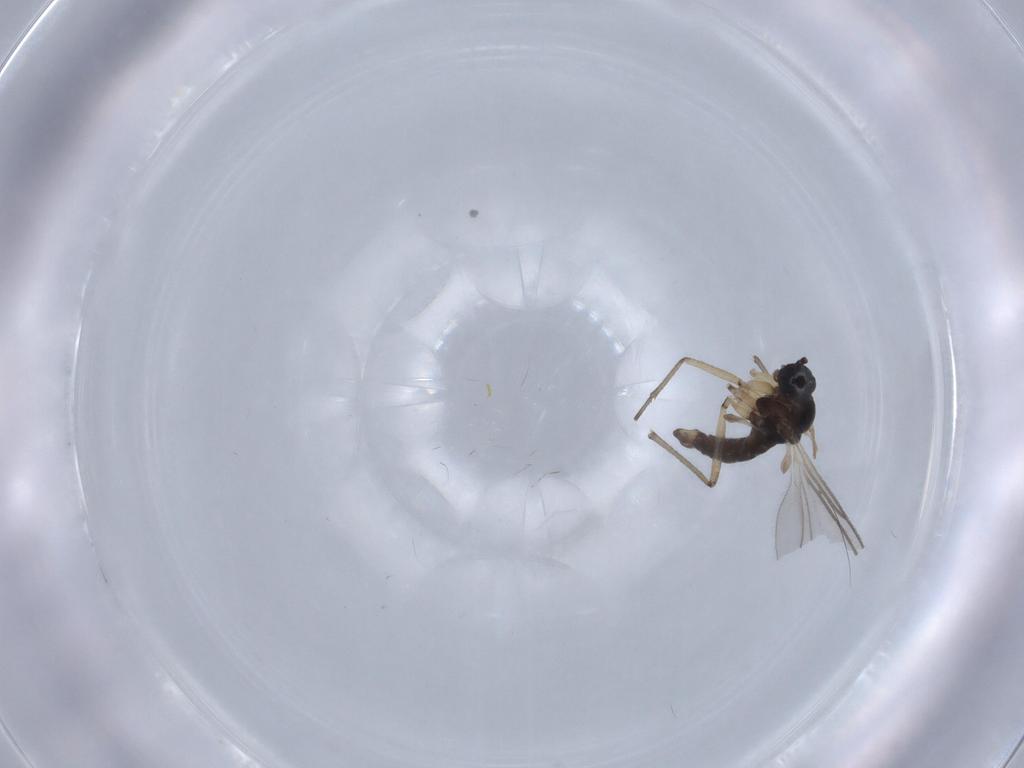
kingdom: Animalia
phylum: Arthropoda
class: Insecta
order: Diptera
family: Sciaridae
